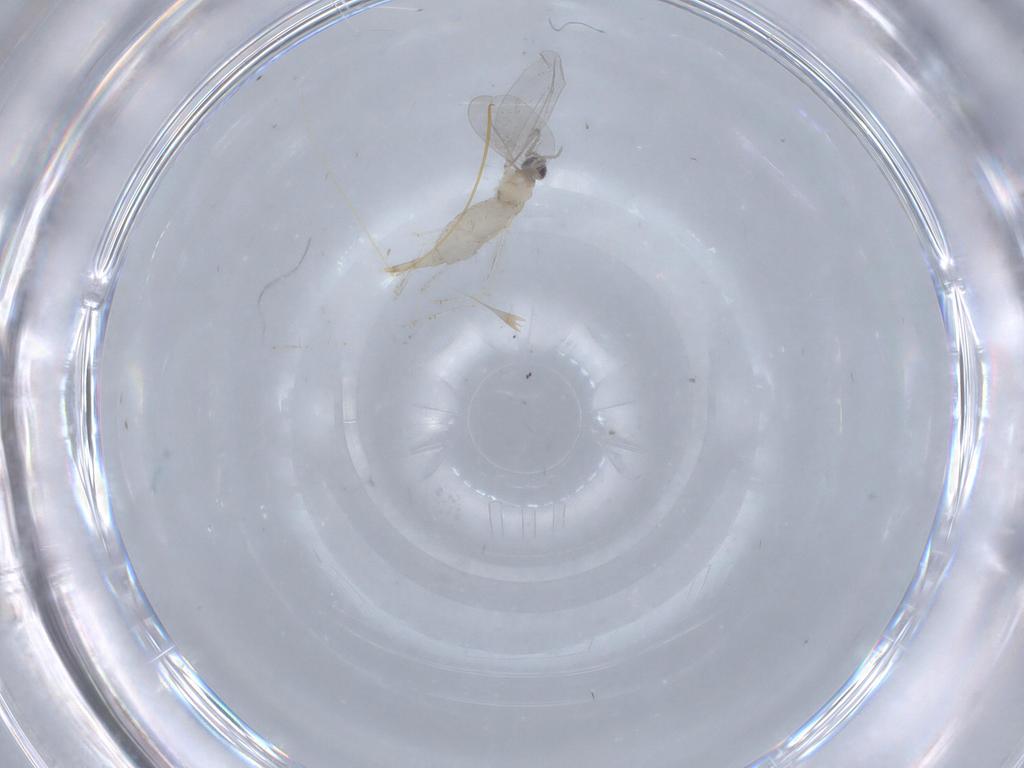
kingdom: Animalia
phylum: Arthropoda
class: Insecta
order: Diptera
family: Cecidomyiidae
